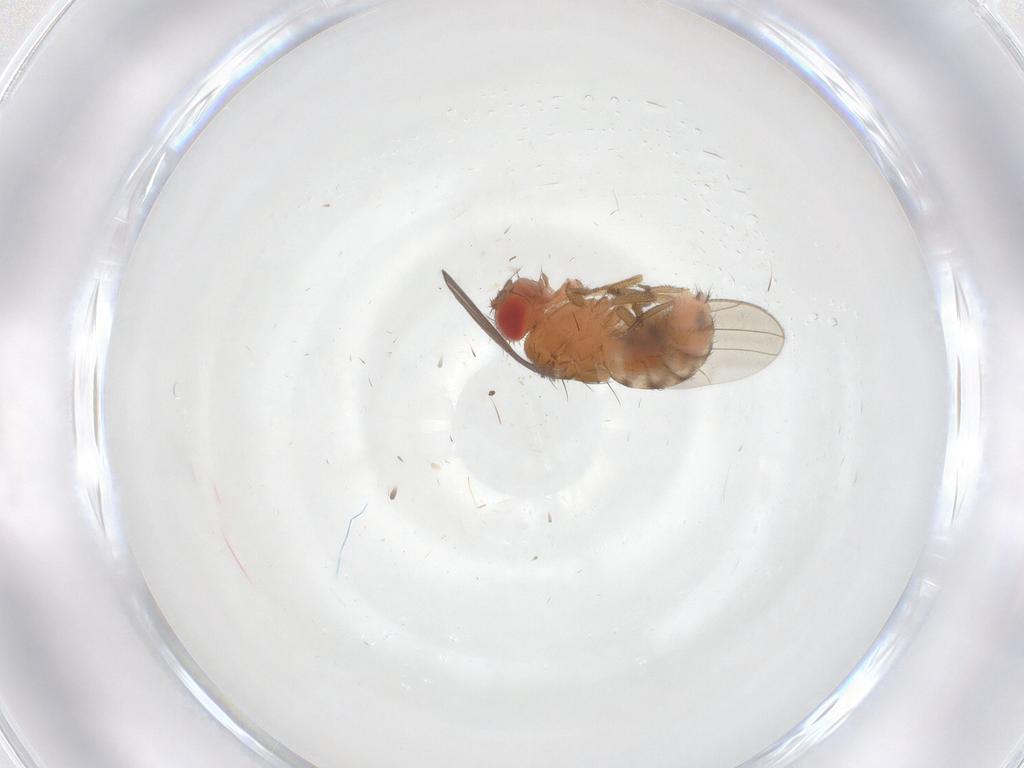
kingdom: Animalia
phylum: Arthropoda
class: Insecta
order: Diptera
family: Drosophilidae
